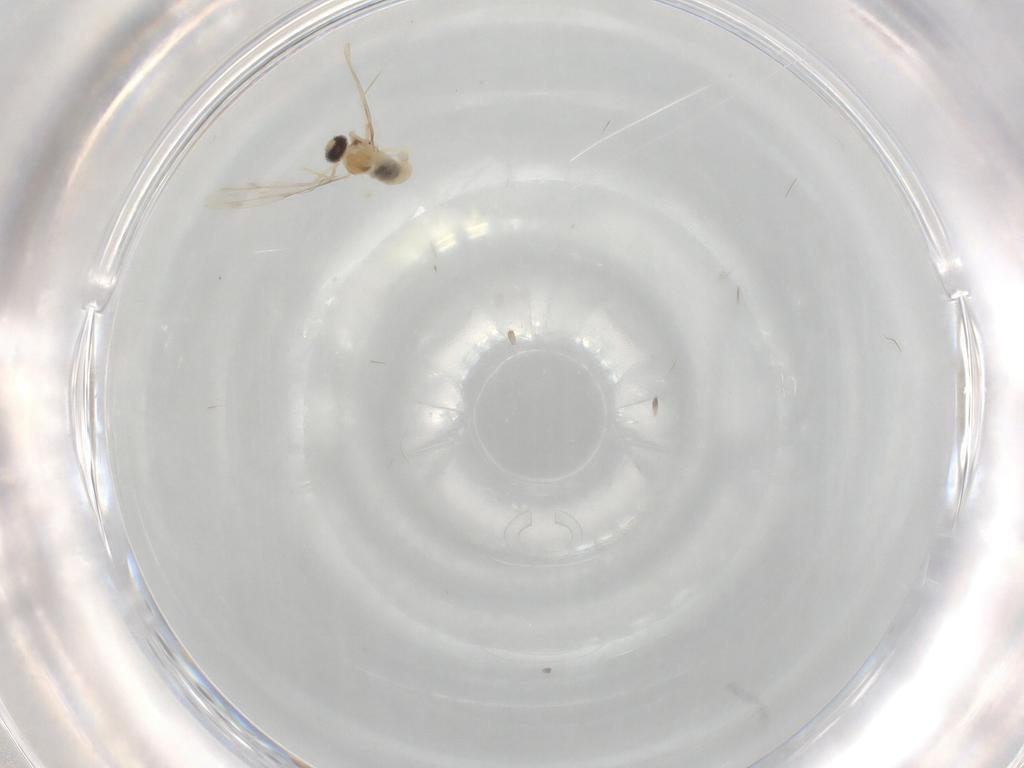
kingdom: Animalia
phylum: Arthropoda
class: Insecta
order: Diptera
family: Cecidomyiidae
